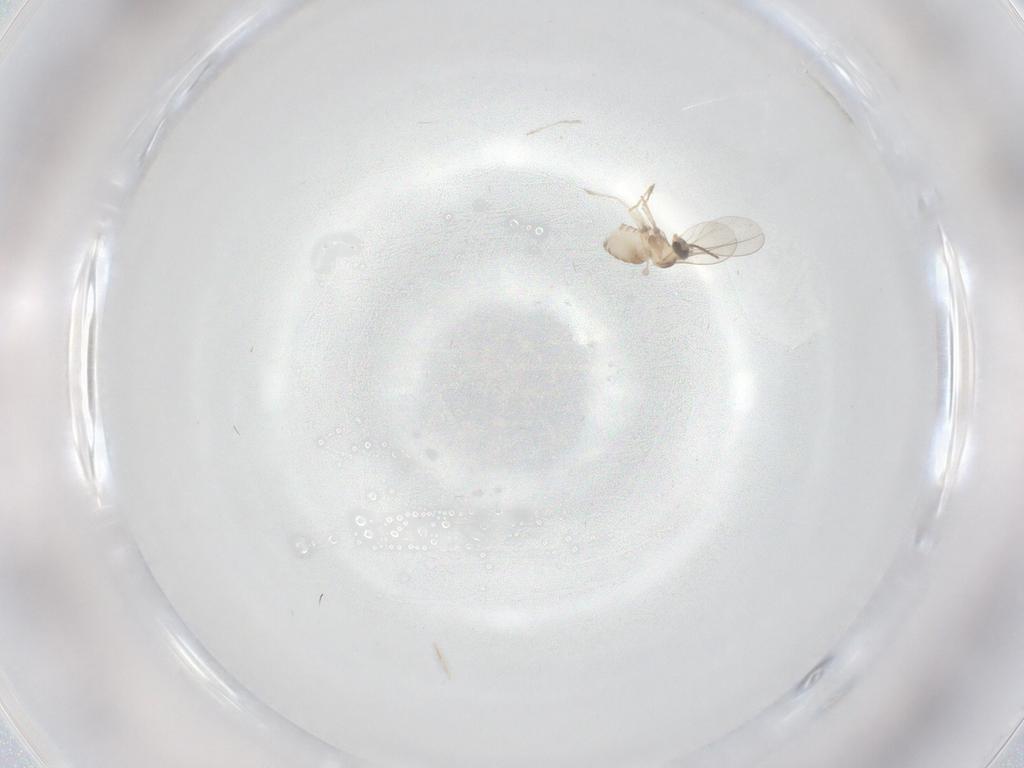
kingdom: Animalia
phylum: Arthropoda
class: Insecta
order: Diptera
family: Cecidomyiidae
